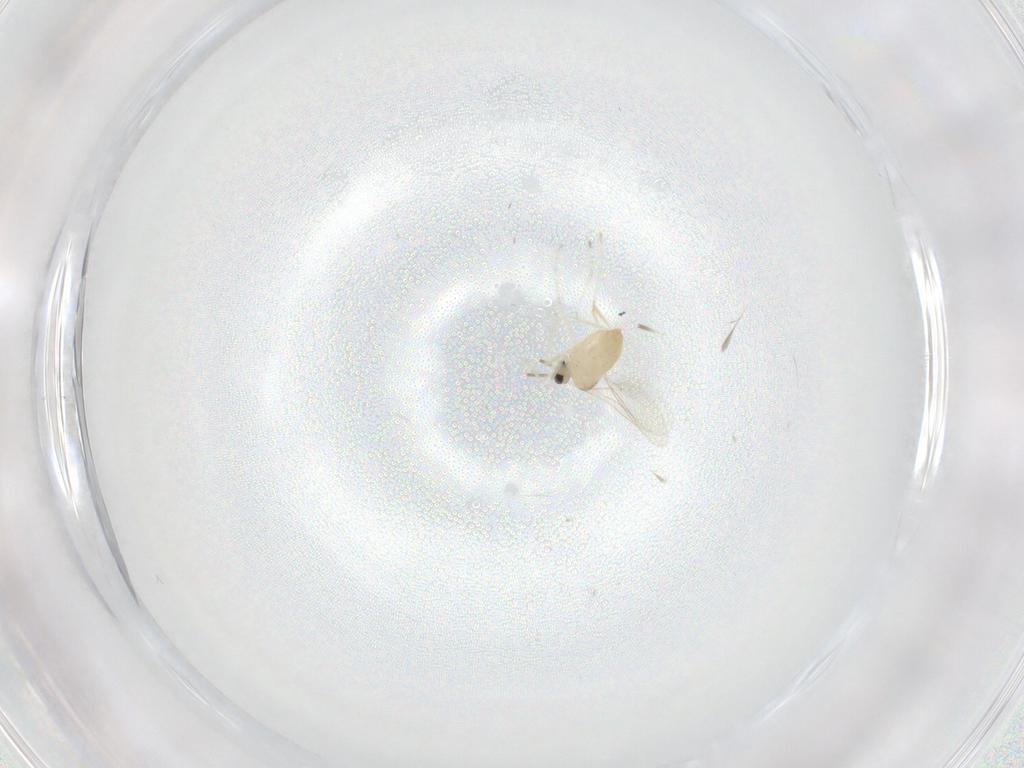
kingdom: Animalia
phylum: Arthropoda
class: Insecta
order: Diptera
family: Cecidomyiidae
